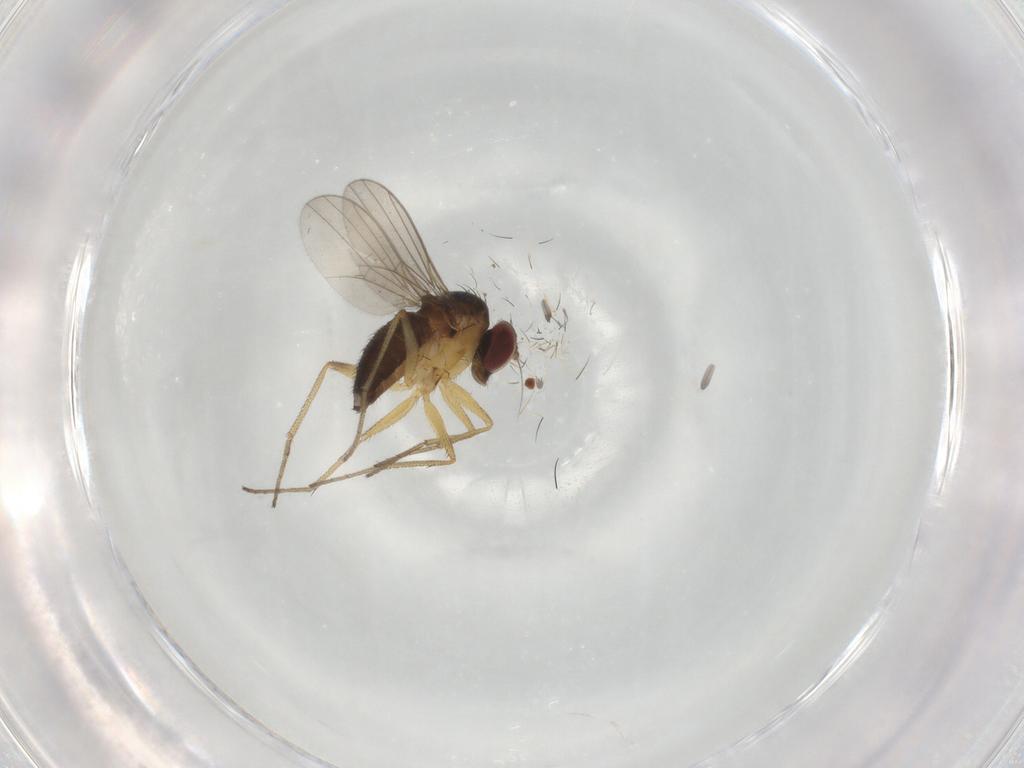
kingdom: Animalia
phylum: Arthropoda
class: Insecta
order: Diptera
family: Dolichopodidae
